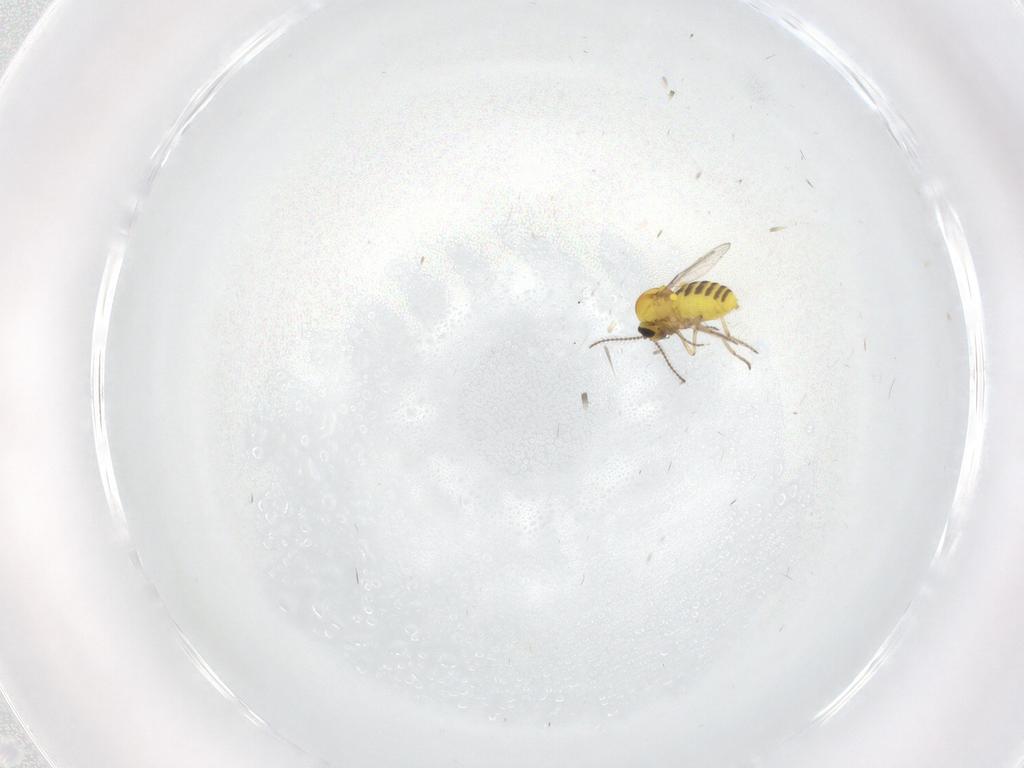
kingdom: Animalia
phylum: Arthropoda
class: Insecta
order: Diptera
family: Ceratopogonidae
